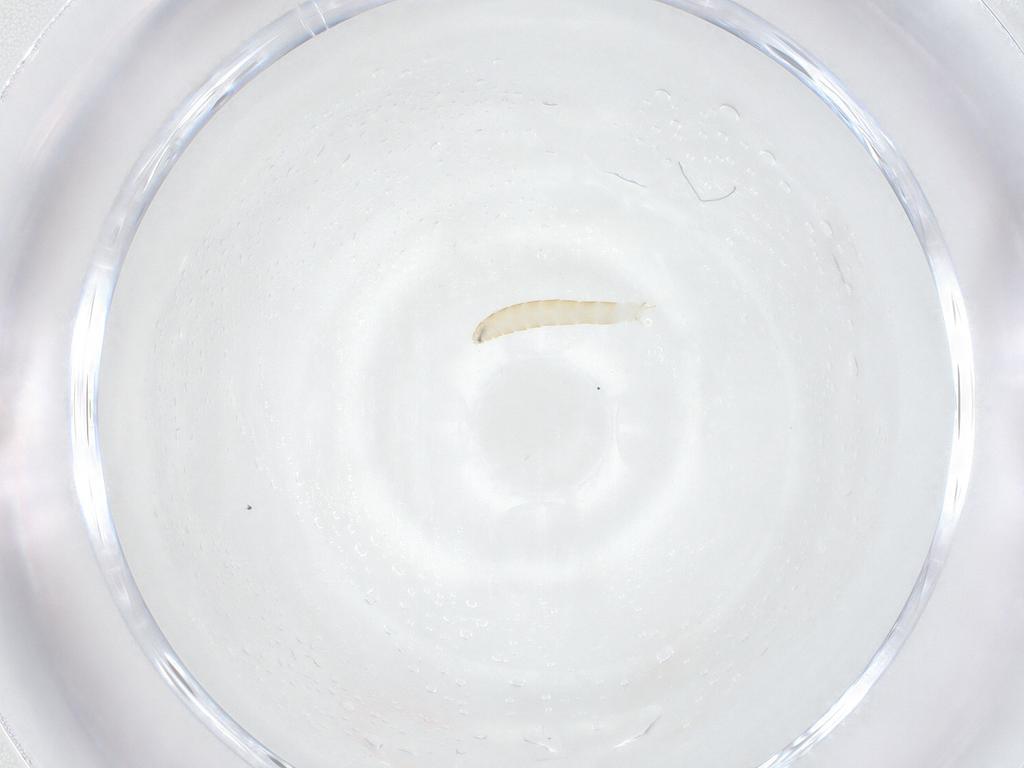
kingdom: Animalia
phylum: Arthropoda
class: Insecta
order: Diptera
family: Tachinidae
